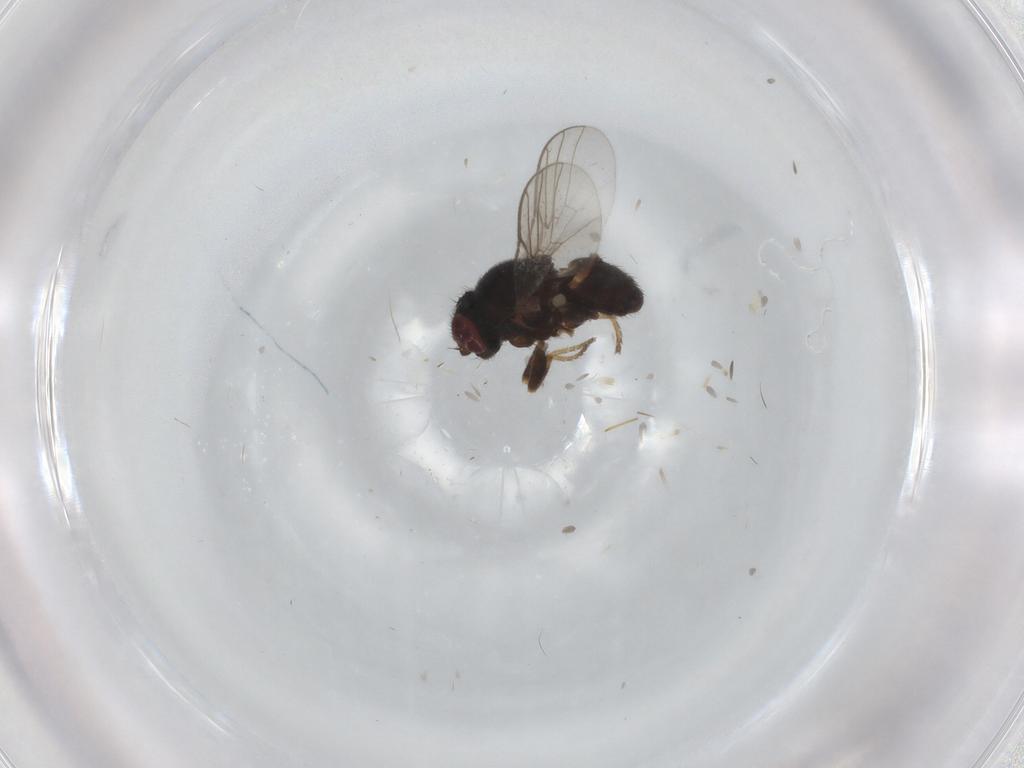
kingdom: Animalia
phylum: Arthropoda
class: Insecta
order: Diptera
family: Chloropidae
